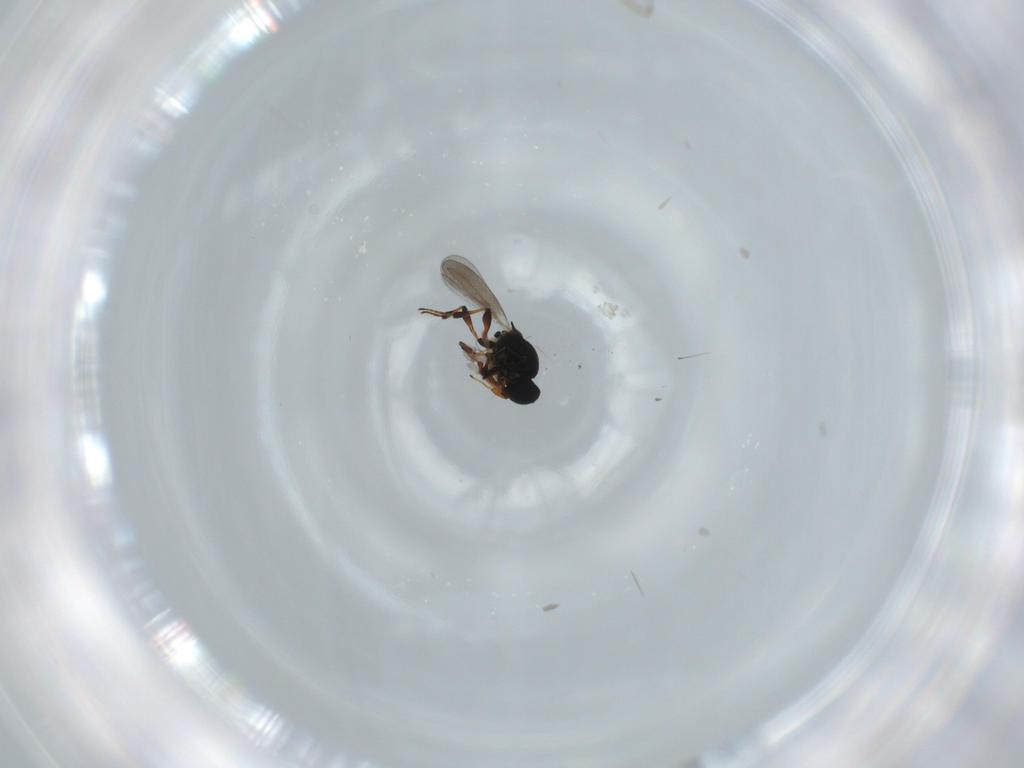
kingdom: Animalia
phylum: Arthropoda
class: Insecta
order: Hymenoptera
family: Platygastridae
